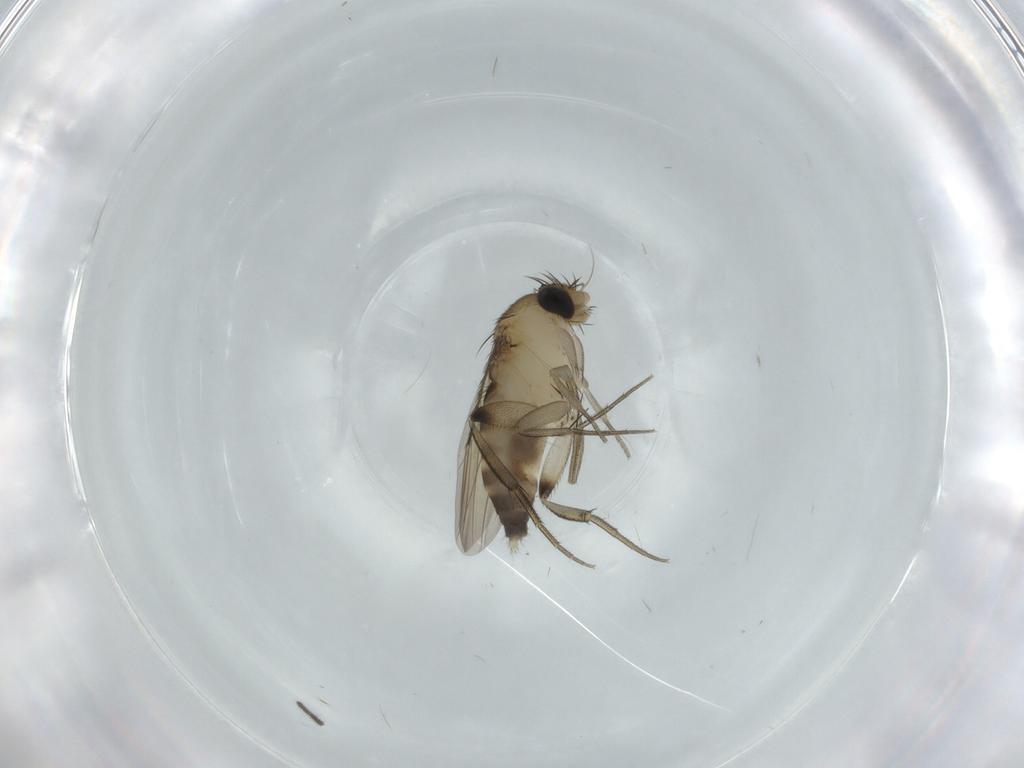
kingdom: Animalia
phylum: Arthropoda
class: Insecta
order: Diptera
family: Phoridae
